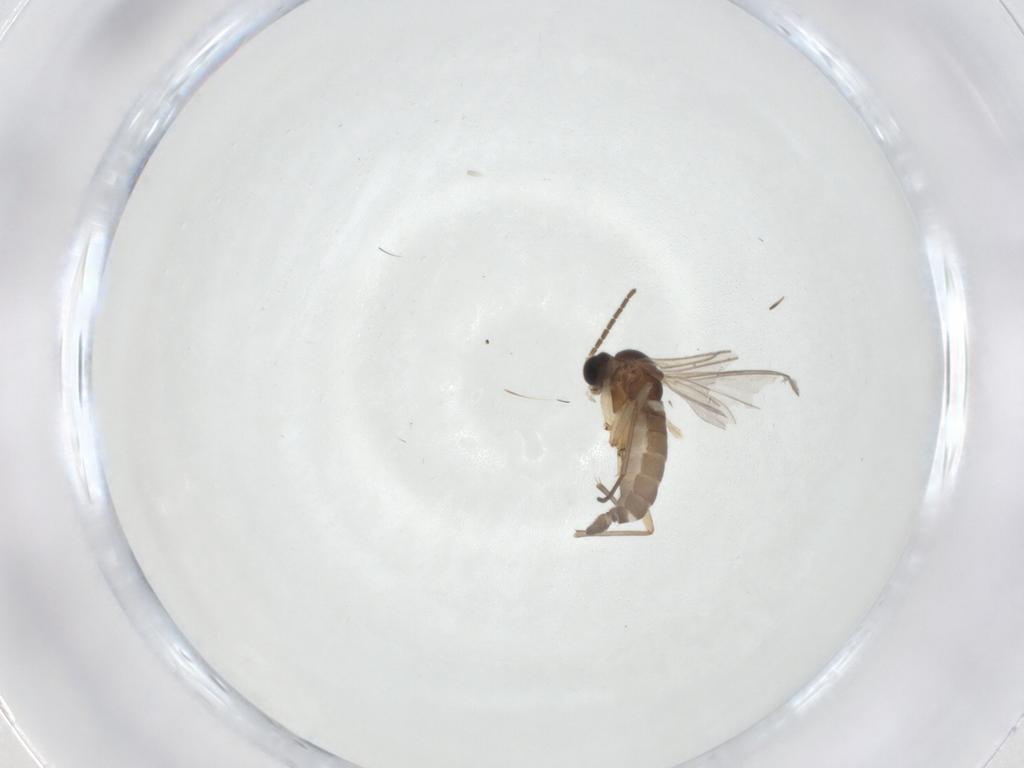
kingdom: Animalia
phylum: Arthropoda
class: Insecta
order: Diptera
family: Sciaridae
